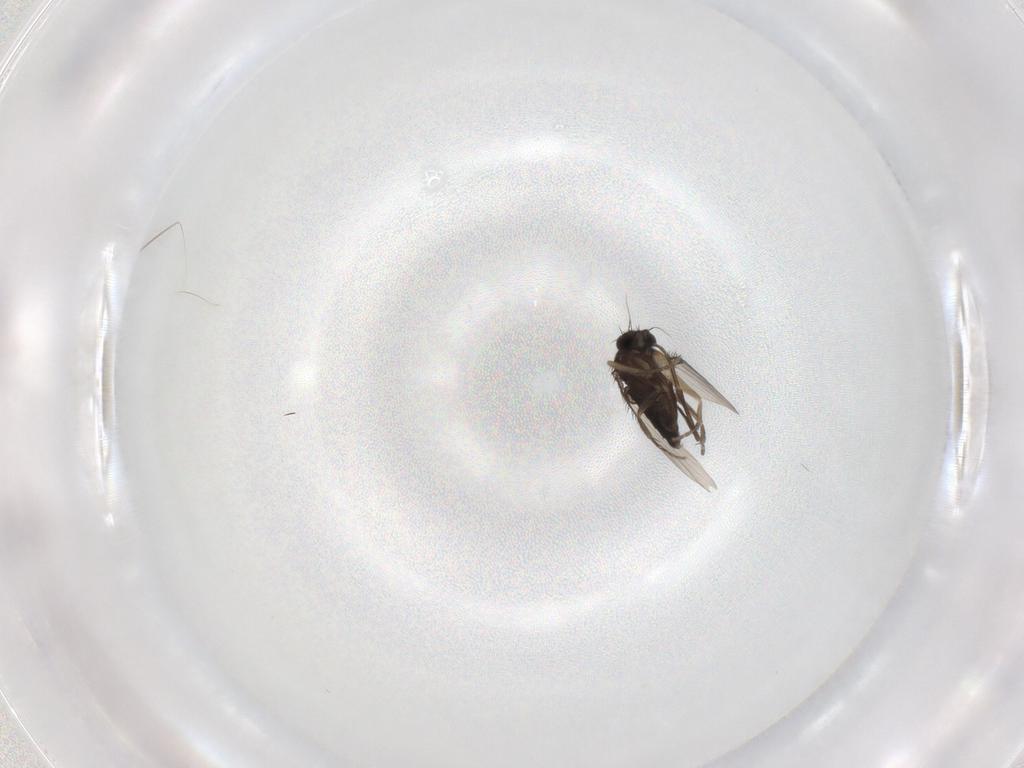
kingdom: Animalia
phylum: Arthropoda
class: Insecta
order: Diptera
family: Phoridae
